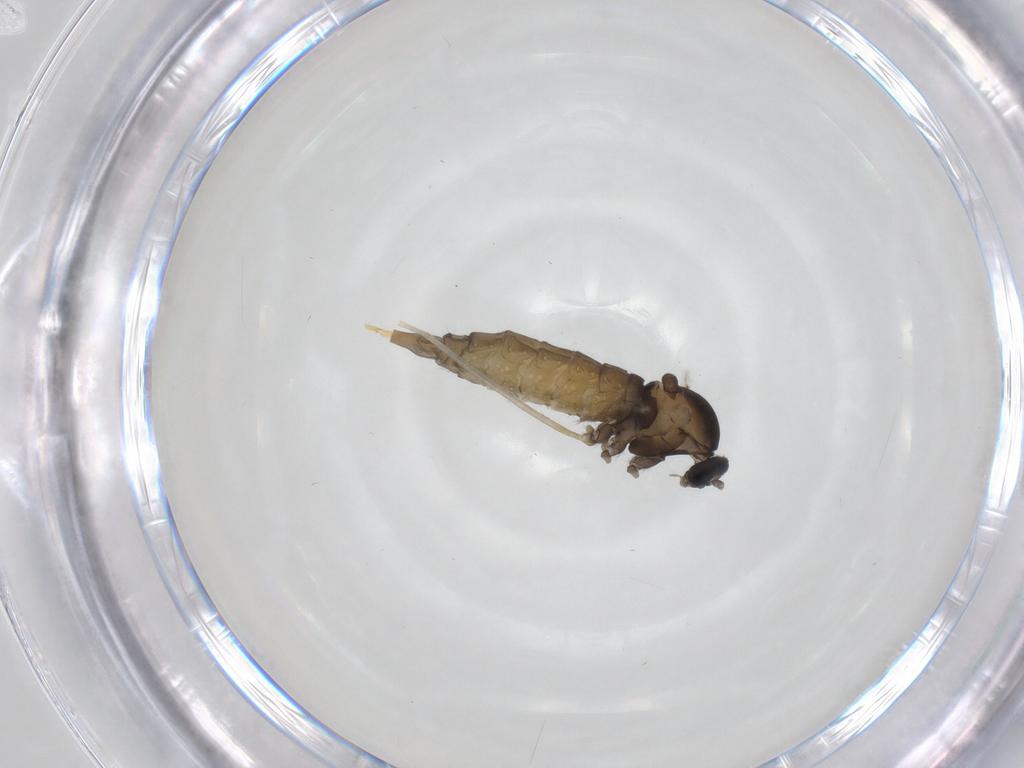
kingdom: Animalia
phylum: Arthropoda
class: Insecta
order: Diptera
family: Cecidomyiidae
